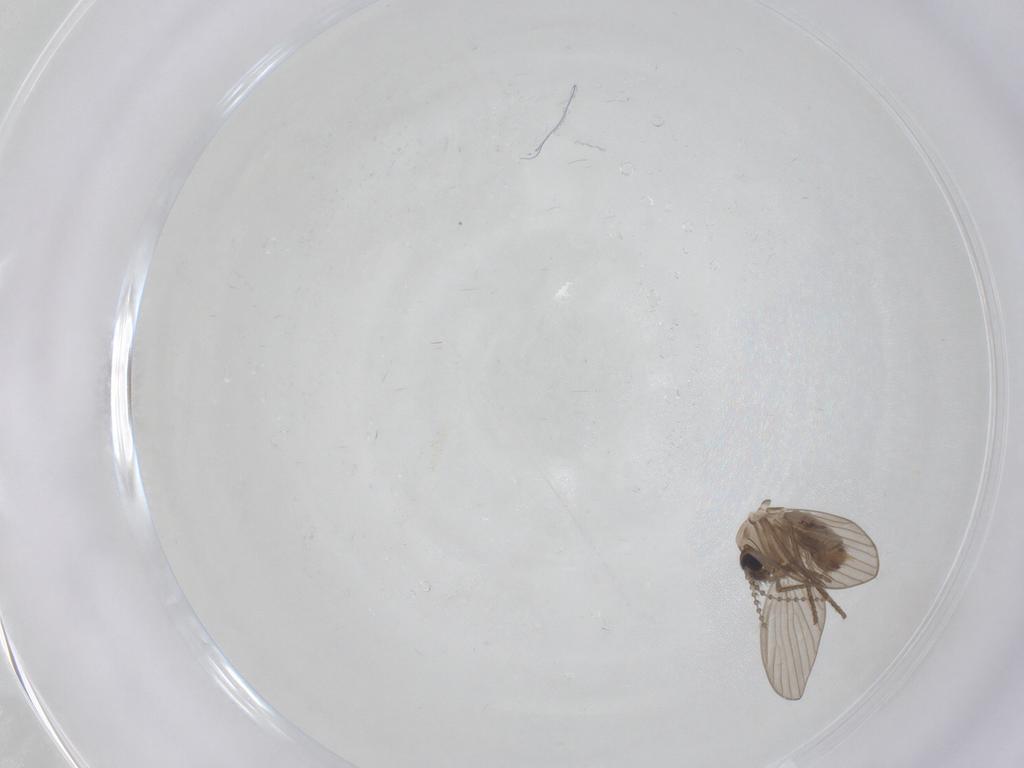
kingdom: Animalia
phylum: Arthropoda
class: Insecta
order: Diptera
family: Psychodidae
